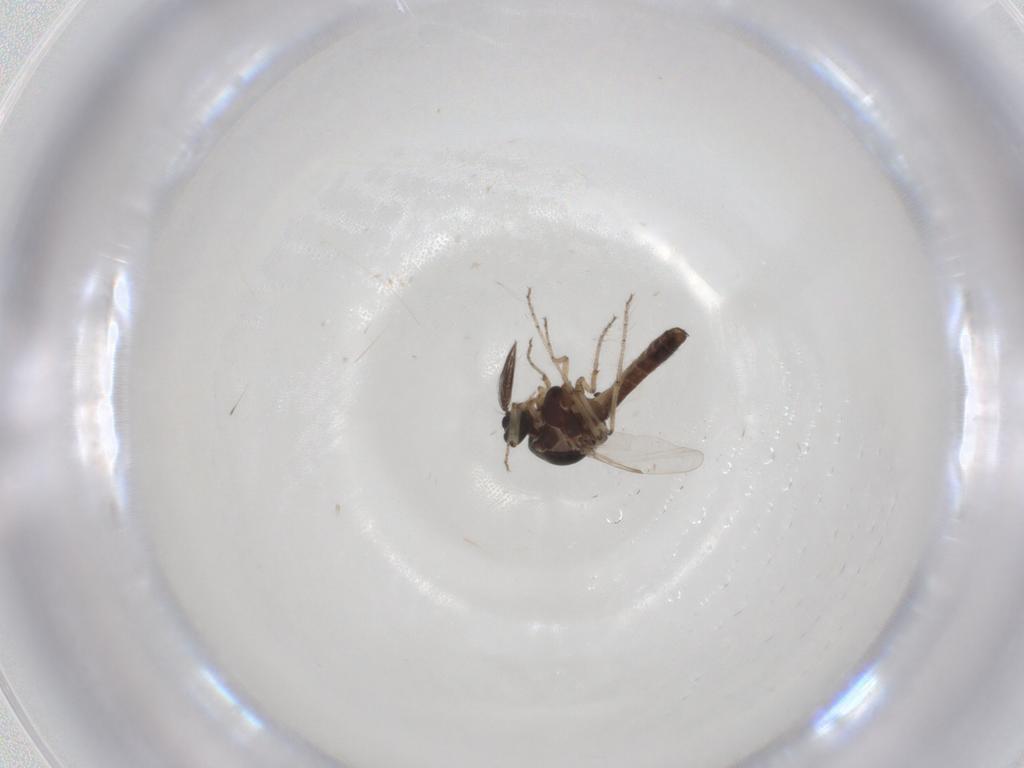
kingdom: Animalia
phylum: Arthropoda
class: Insecta
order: Diptera
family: Ceratopogonidae
